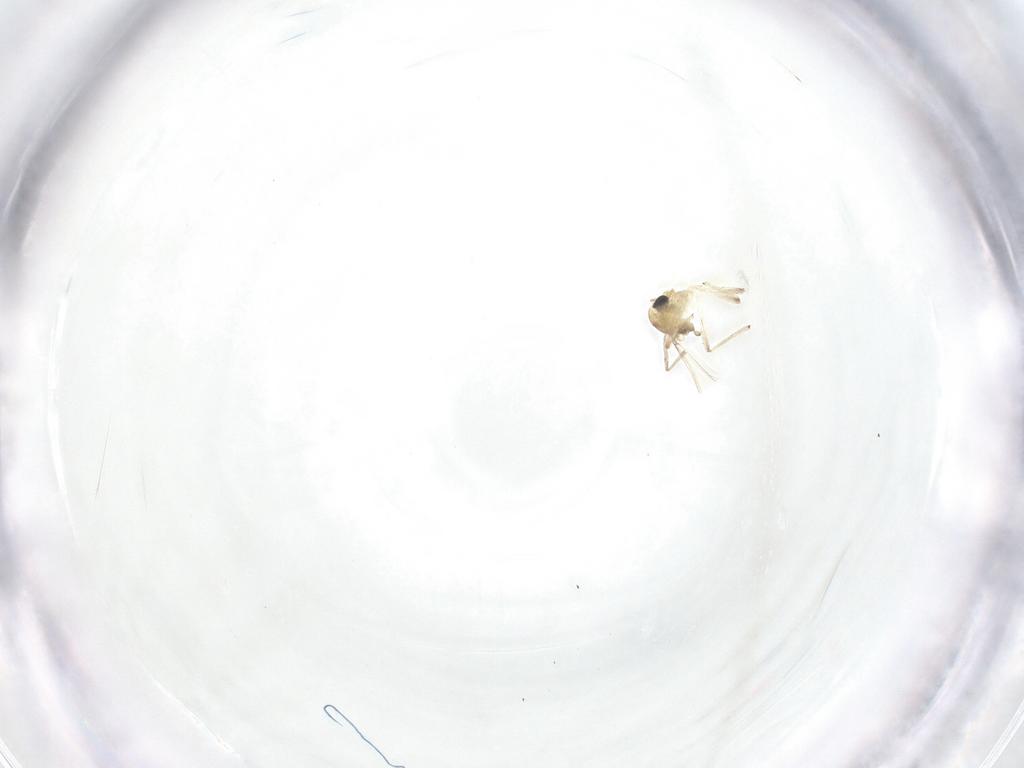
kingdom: Animalia
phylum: Arthropoda
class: Insecta
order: Diptera
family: Chironomidae
